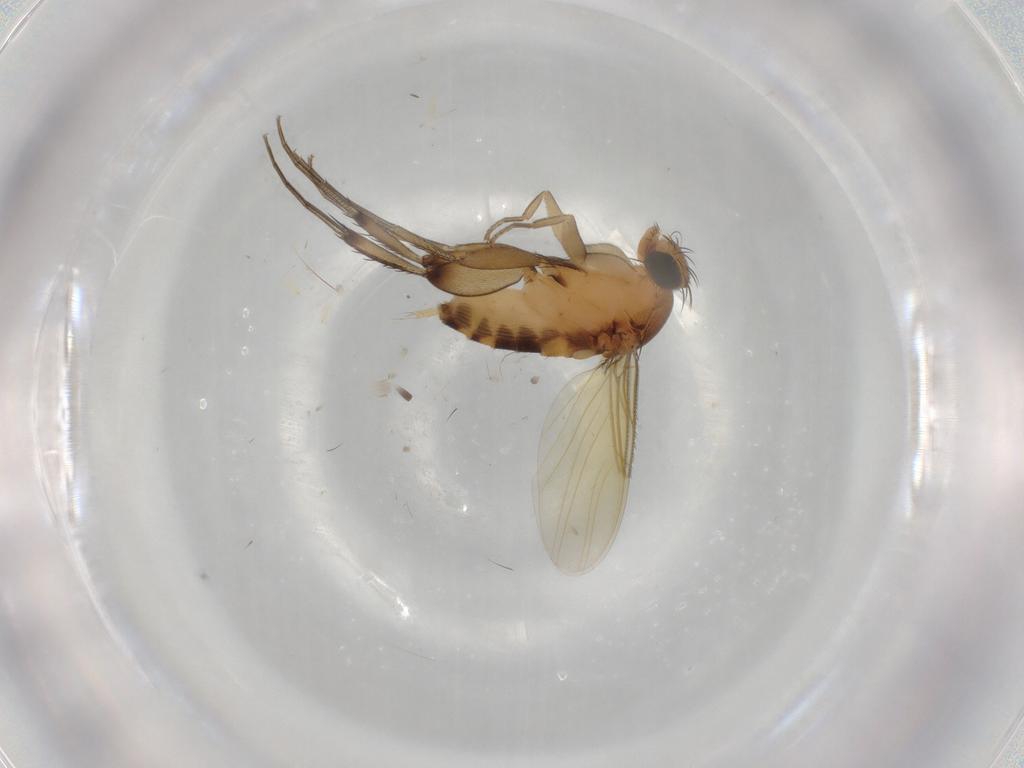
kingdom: Animalia
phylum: Arthropoda
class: Insecta
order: Diptera
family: Phoridae
